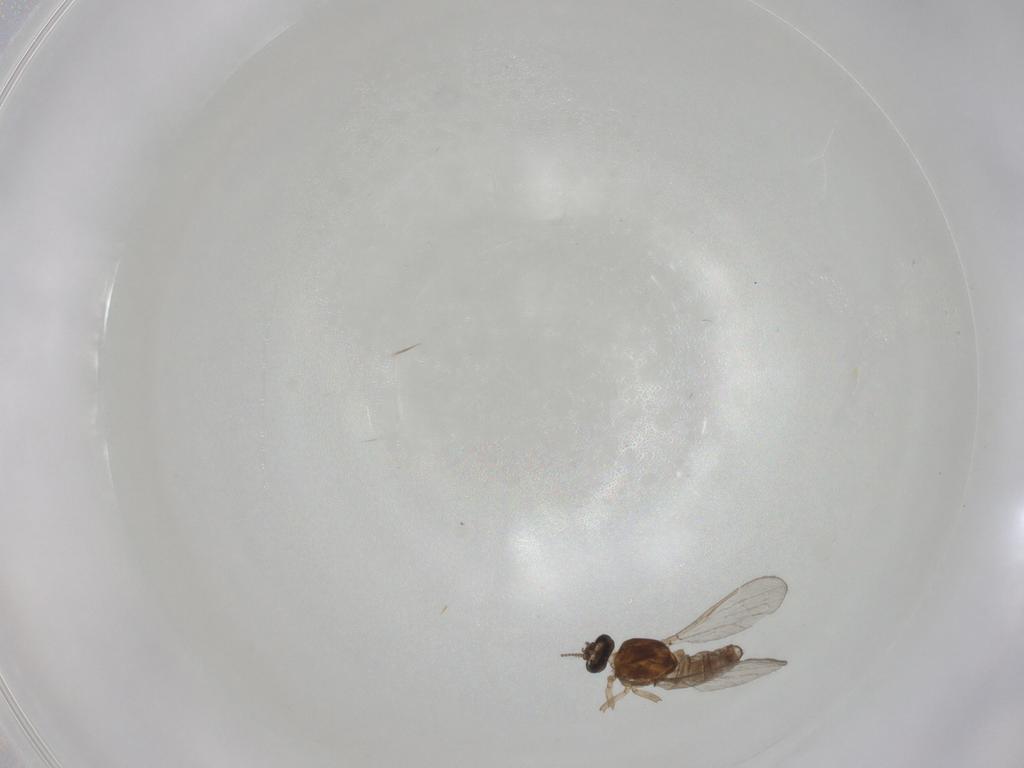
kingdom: Animalia
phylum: Arthropoda
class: Insecta
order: Diptera
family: Ceratopogonidae
